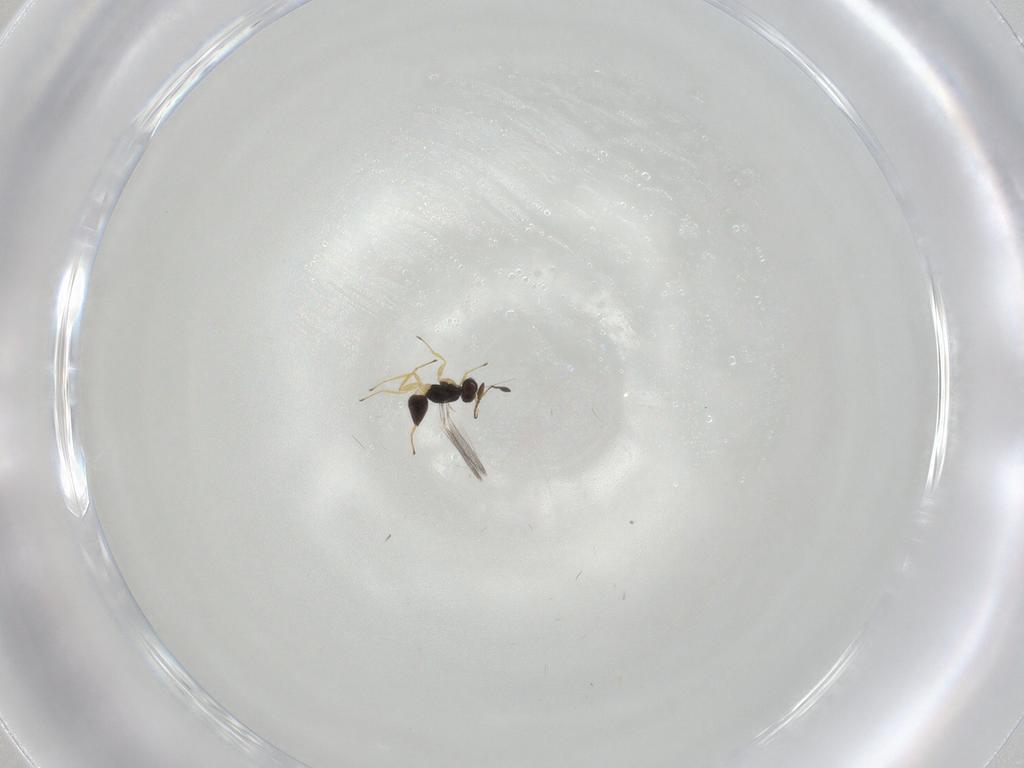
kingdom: Animalia
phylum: Arthropoda
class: Insecta
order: Hymenoptera
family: Mymaridae
